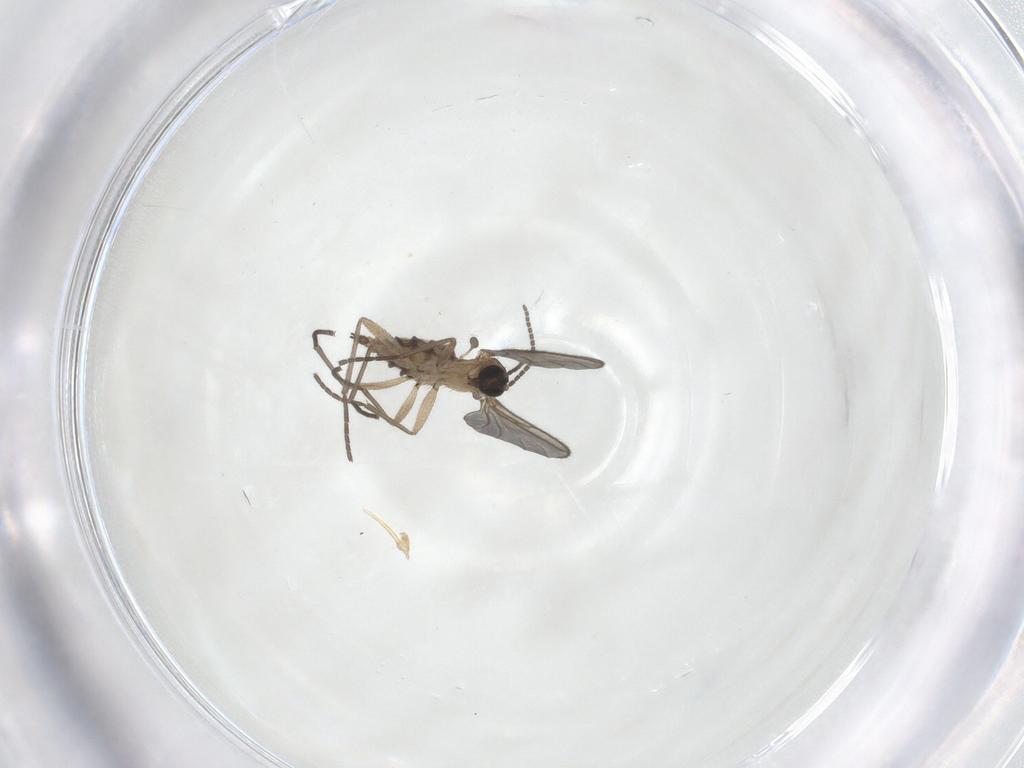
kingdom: Animalia
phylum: Arthropoda
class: Insecta
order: Diptera
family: Sciaridae
